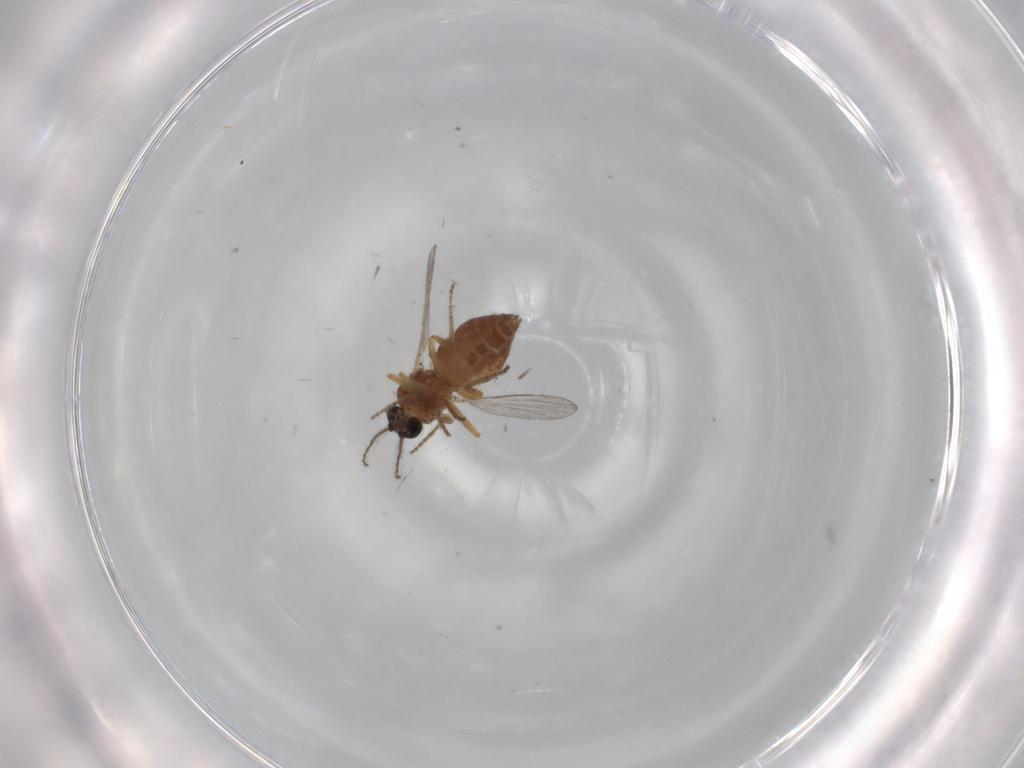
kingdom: Animalia
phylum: Arthropoda
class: Insecta
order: Diptera
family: Ceratopogonidae
